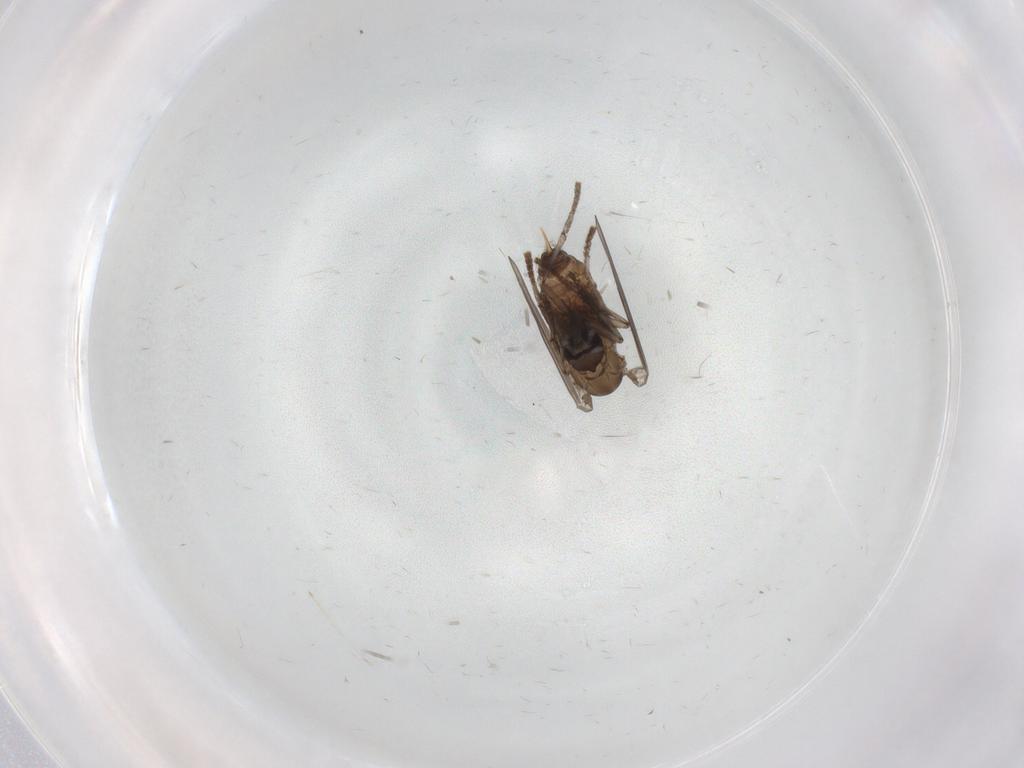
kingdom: Animalia
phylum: Arthropoda
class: Insecta
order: Diptera
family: Psychodidae
